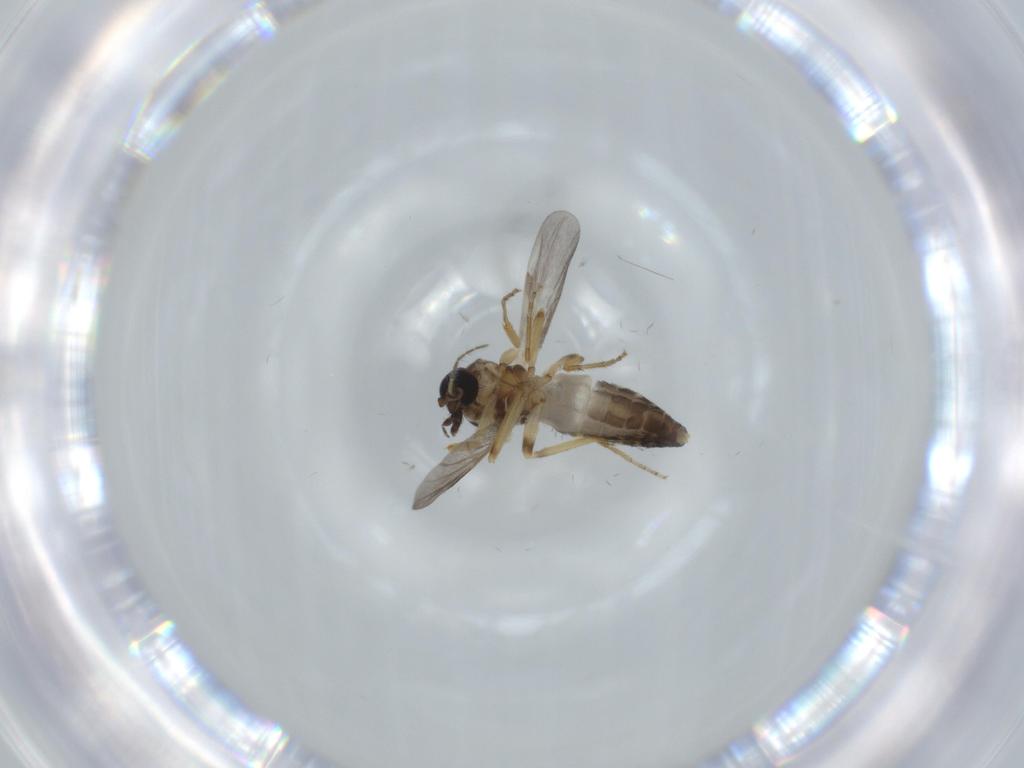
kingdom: Animalia
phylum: Arthropoda
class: Insecta
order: Diptera
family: Ceratopogonidae
